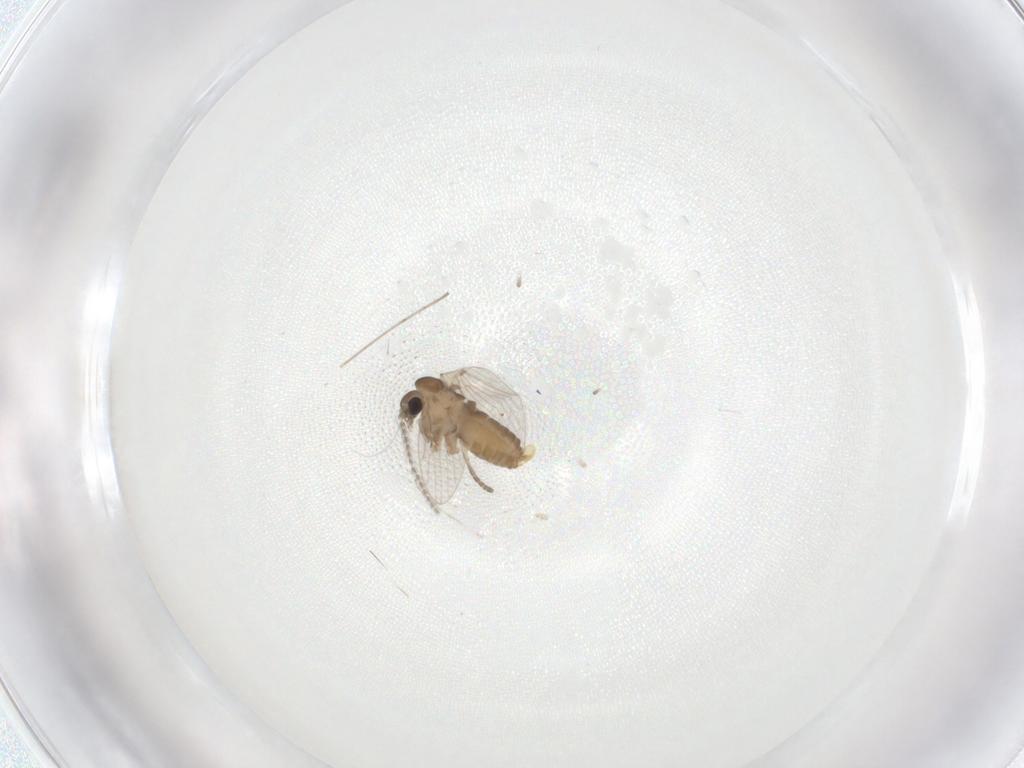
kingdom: Animalia
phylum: Arthropoda
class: Insecta
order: Diptera
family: Cecidomyiidae
